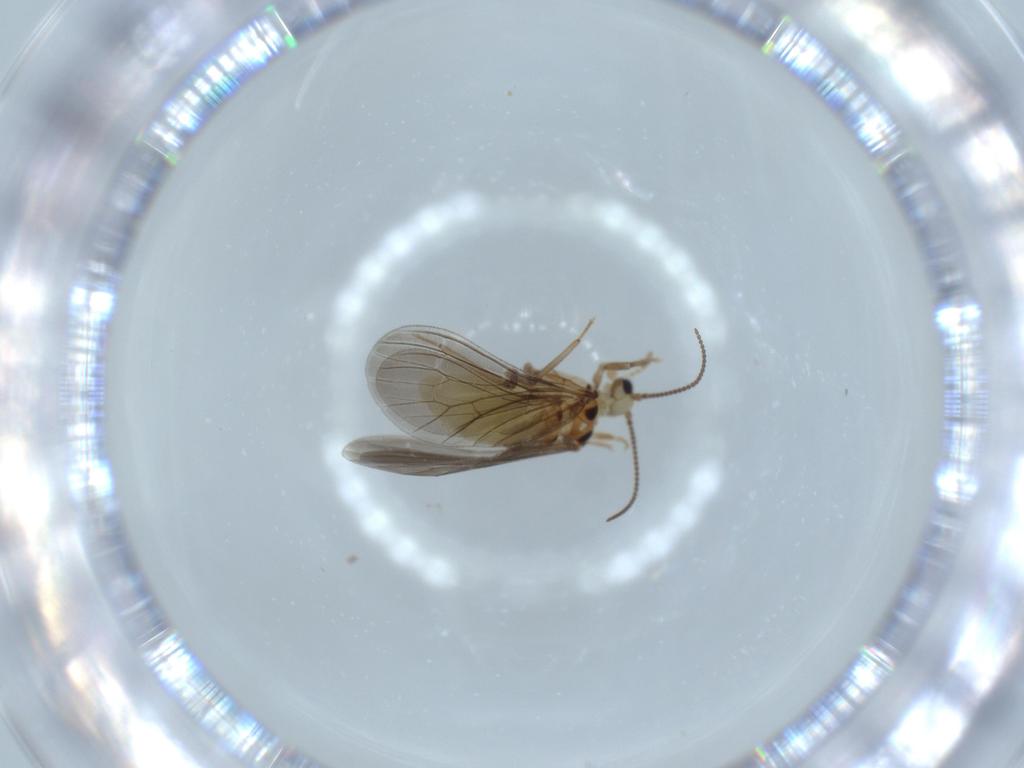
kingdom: Animalia
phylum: Arthropoda
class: Insecta
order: Neuroptera
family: Coniopterygidae
